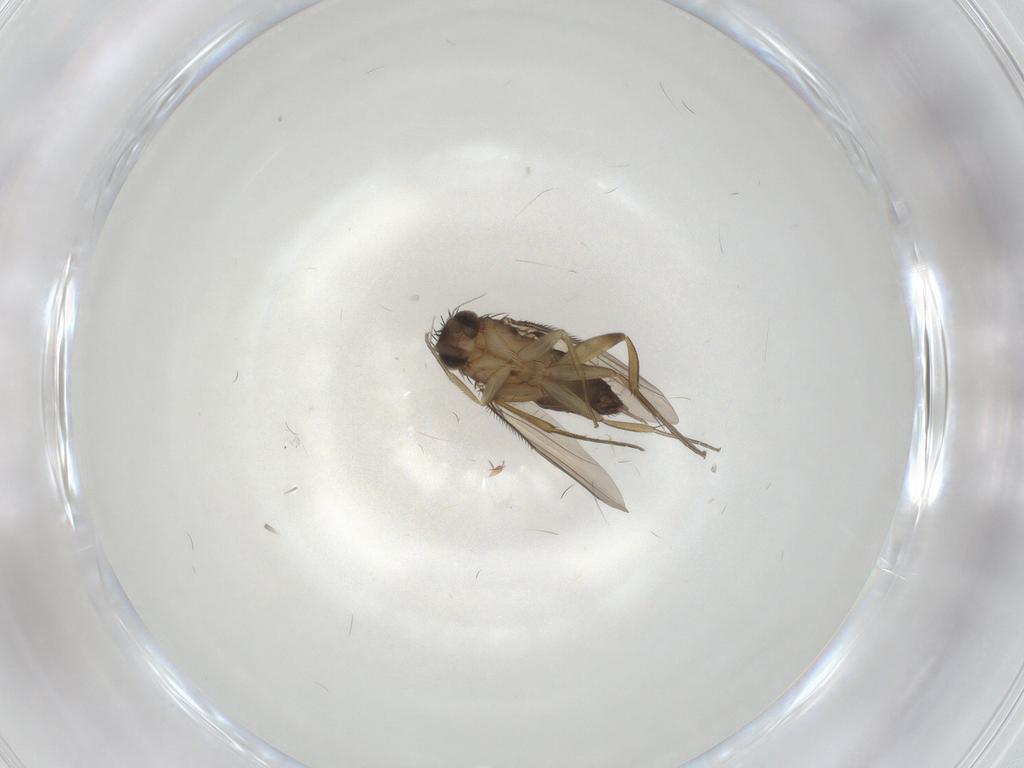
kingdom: Animalia
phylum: Arthropoda
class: Insecta
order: Diptera
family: Phoridae
